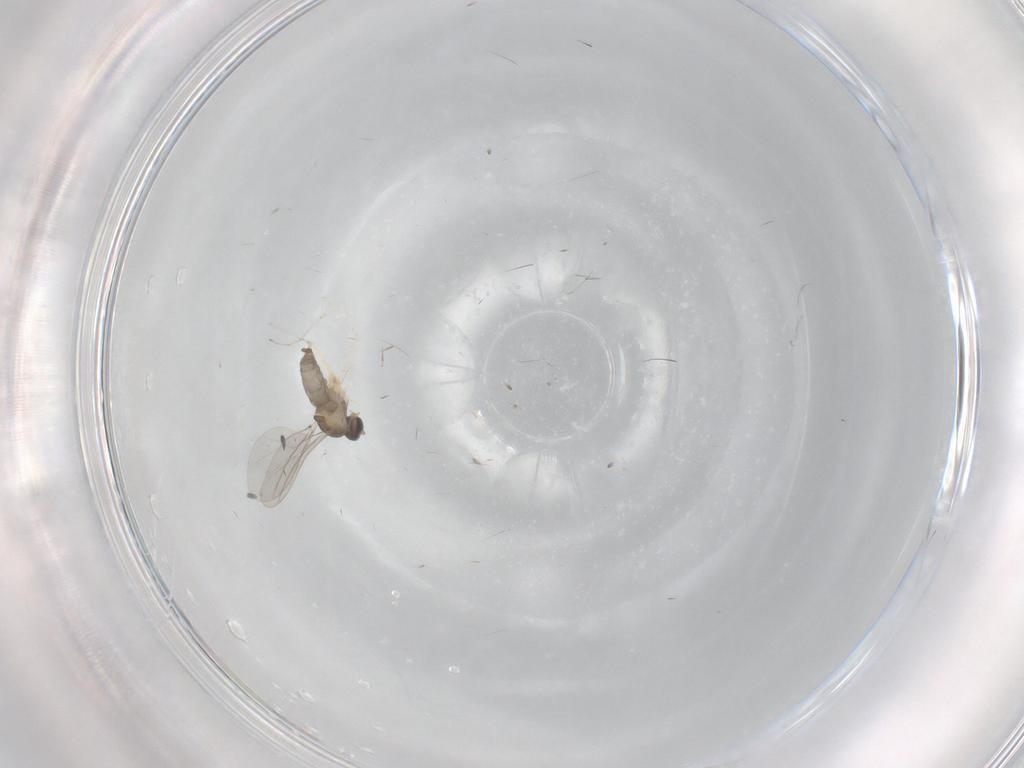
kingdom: Animalia
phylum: Arthropoda
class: Insecta
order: Diptera
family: Cecidomyiidae
